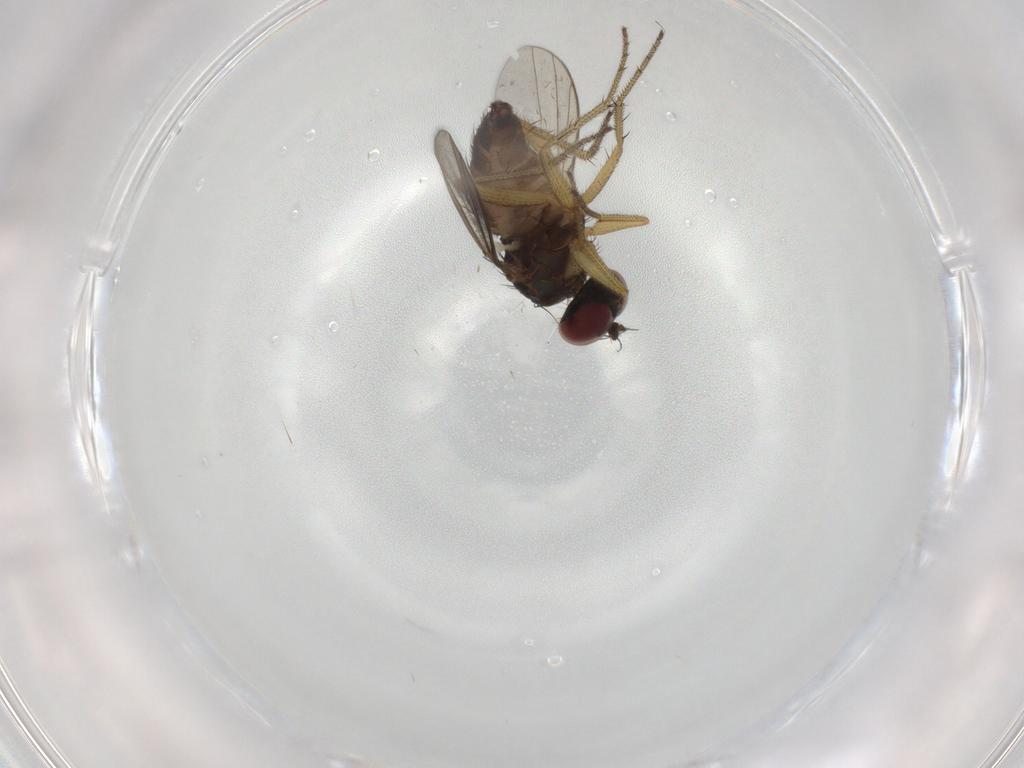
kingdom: Animalia
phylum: Arthropoda
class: Insecta
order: Diptera
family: Dolichopodidae
